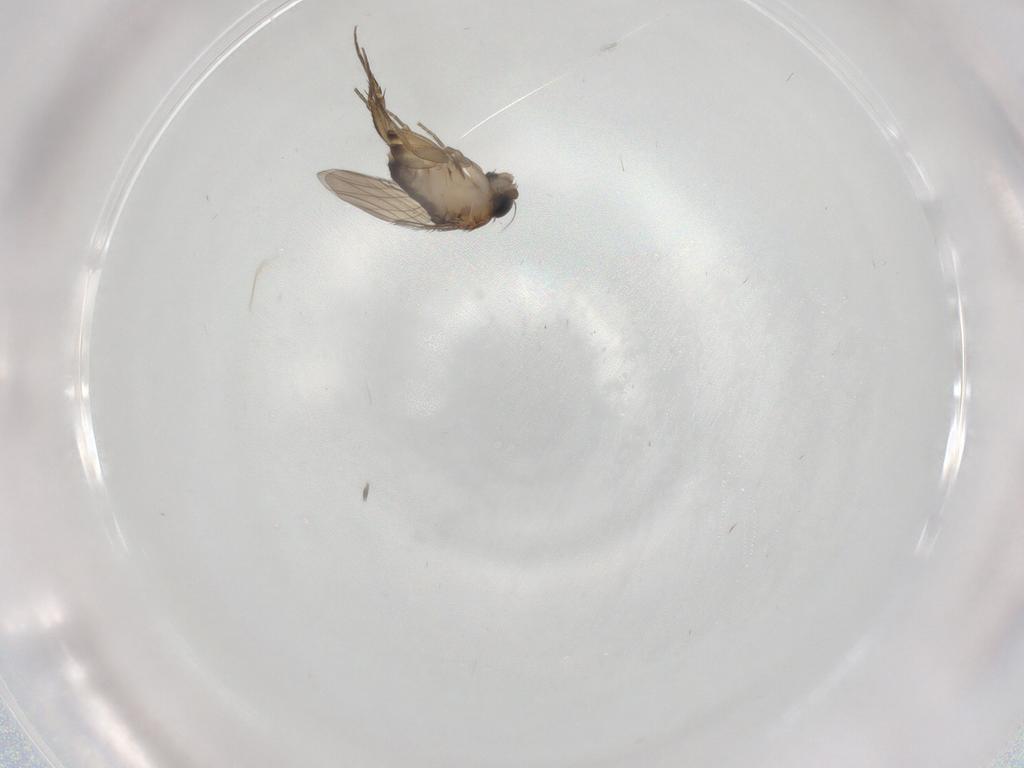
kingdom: Animalia
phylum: Arthropoda
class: Insecta
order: Diptera
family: Phoridae
